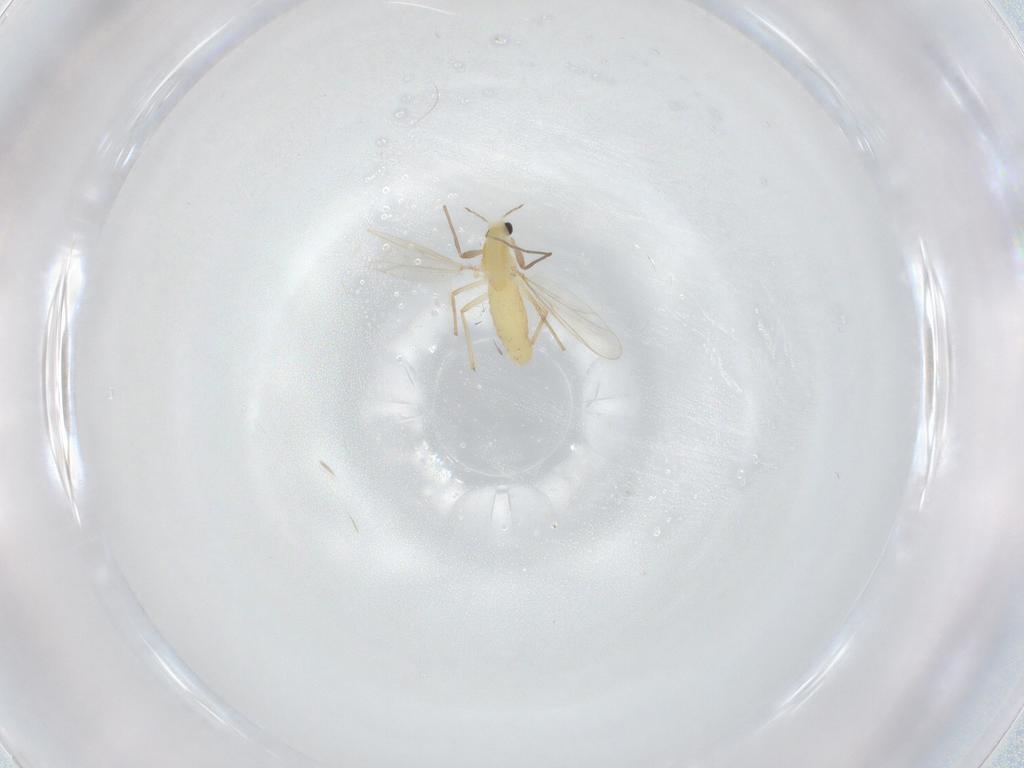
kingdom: Animalia
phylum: Arthropoda
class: Insecta
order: Diptera
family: Chironomidae
